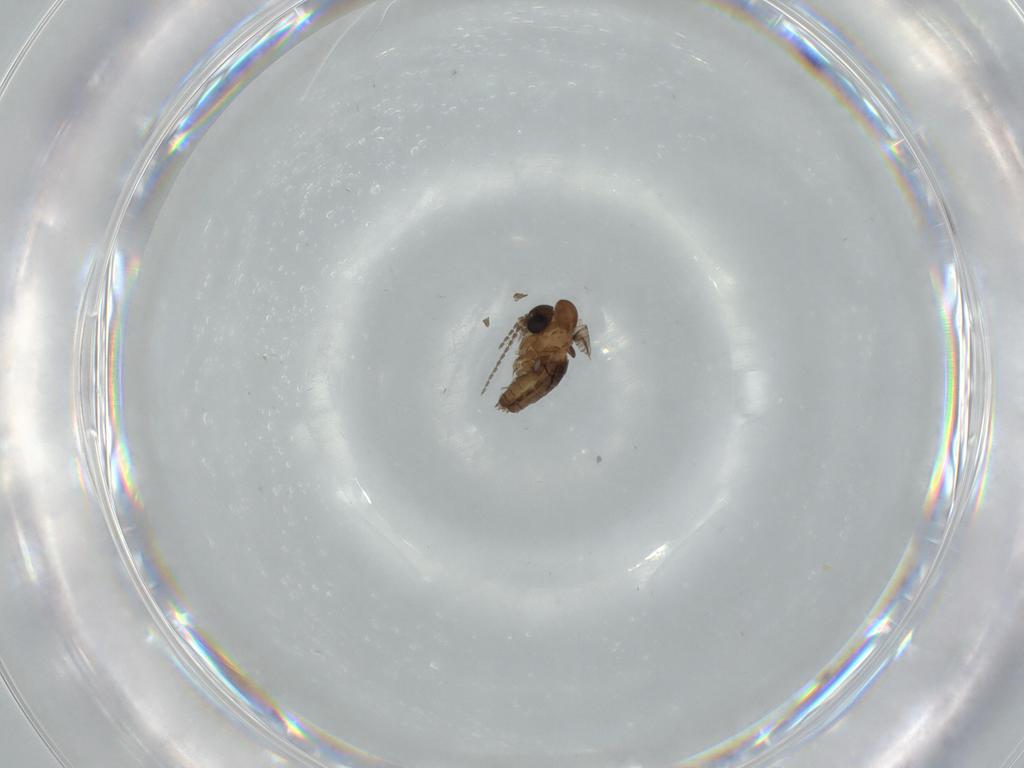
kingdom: Animalia
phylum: Arthropoda
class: Insecta
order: Diptera
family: Psychodidae
